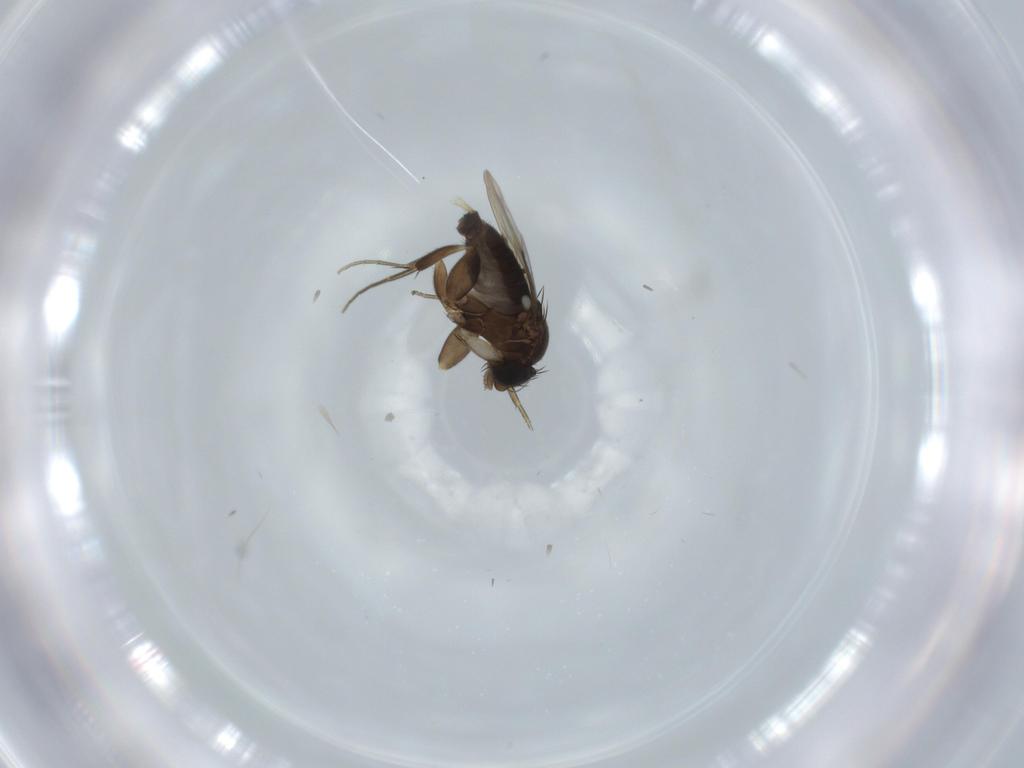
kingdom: Animalia
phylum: Arthropoda
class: Insecta
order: Diptera
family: Phoridae
